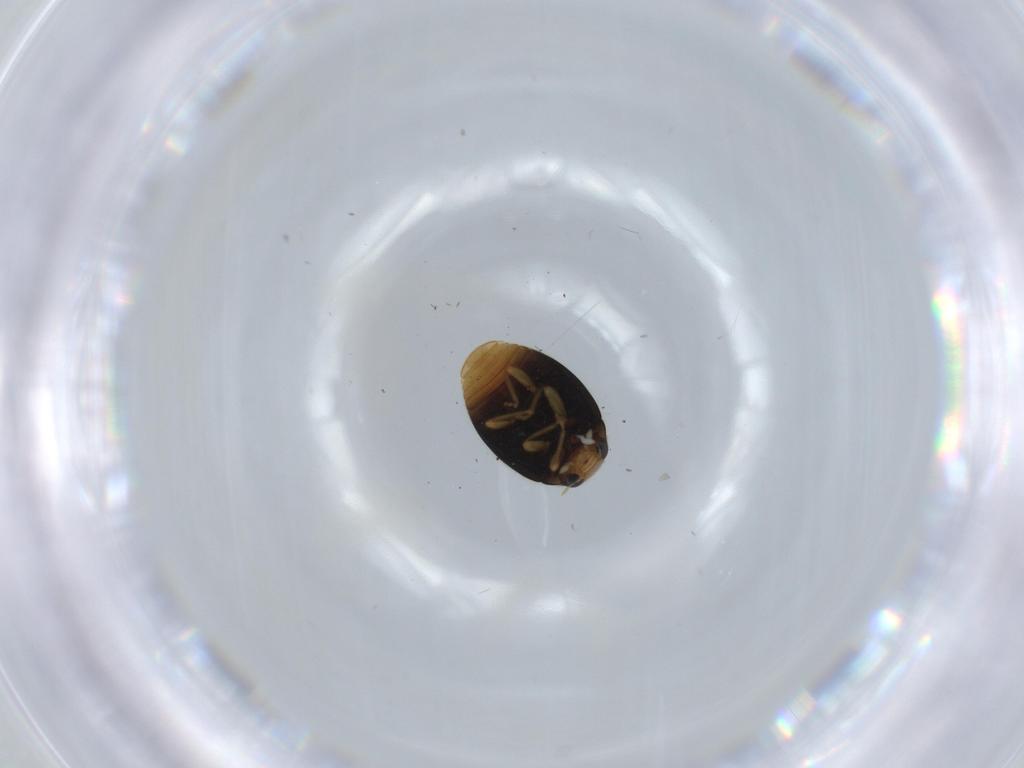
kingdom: Animalia
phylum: Arthropoda
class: Insecta
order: Coleoptera
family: Coccinellidae
